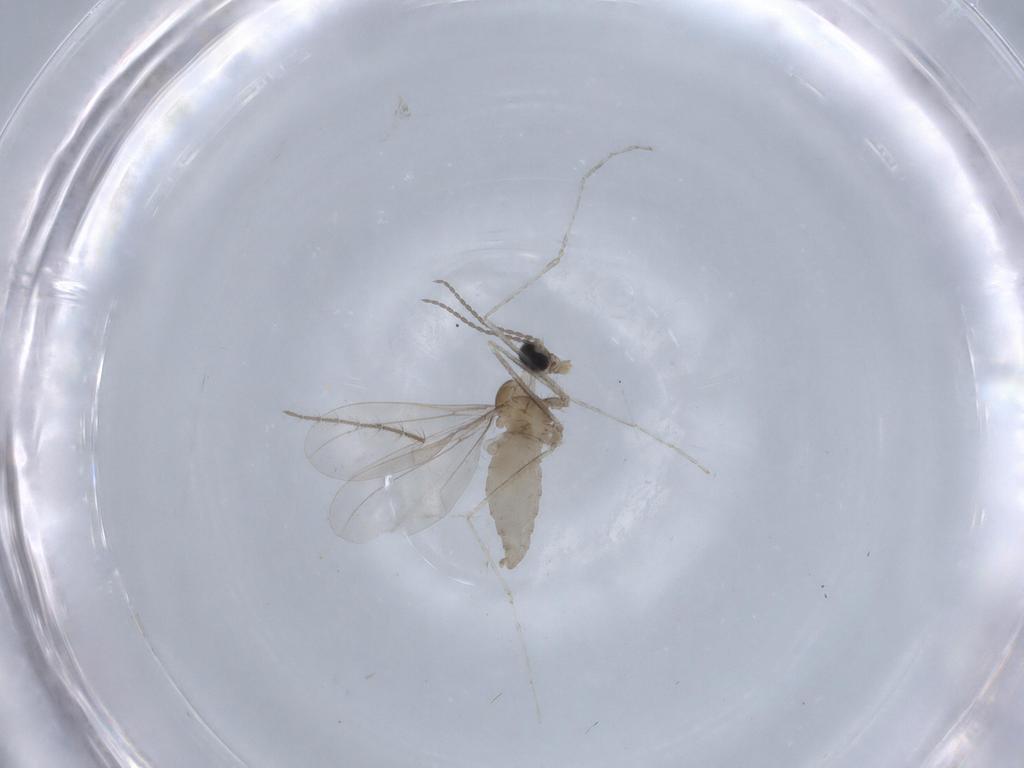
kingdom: Animalia
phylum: Arthropoda
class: Insecta
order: Diptera
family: Culicidae
